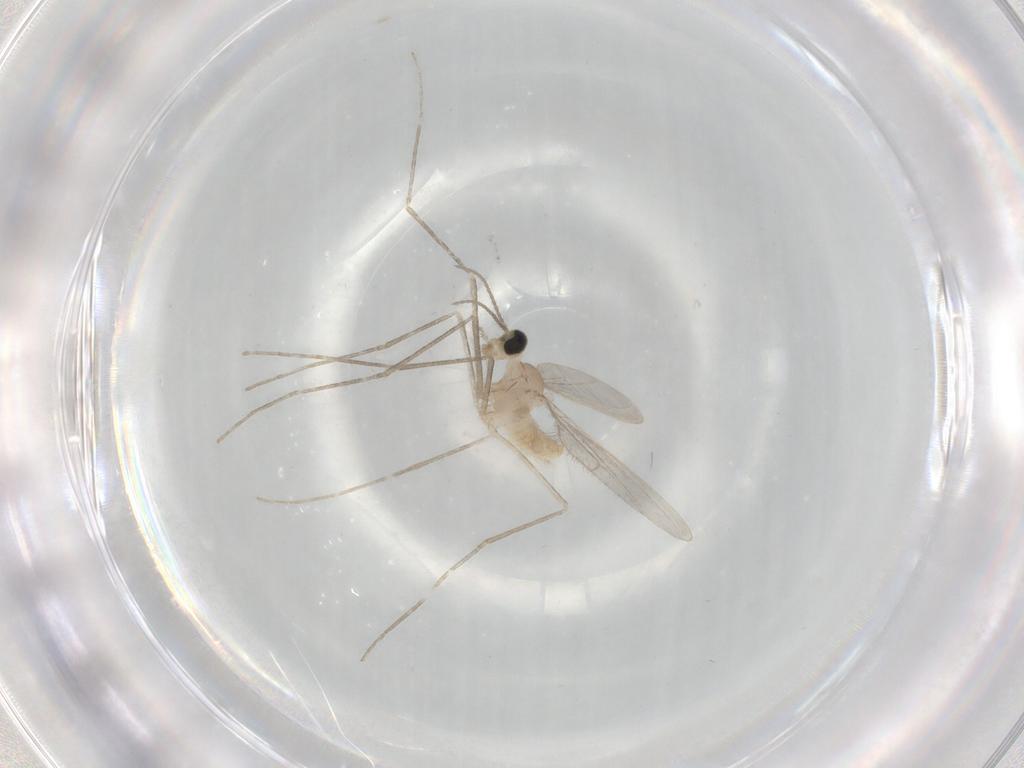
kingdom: Animalia
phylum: Arthropoda
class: Insecta
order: Diptera
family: Cecidomyiidae
